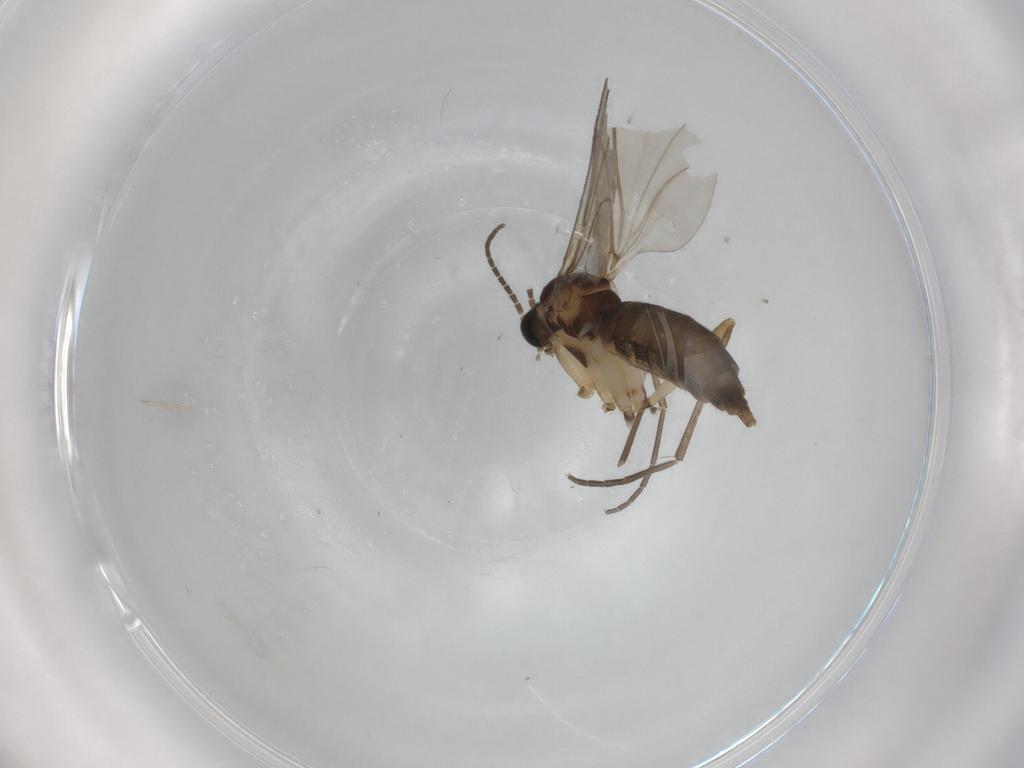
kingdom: Animalia
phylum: Arthropoda
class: Insecta
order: Diptera
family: Chironomidae
